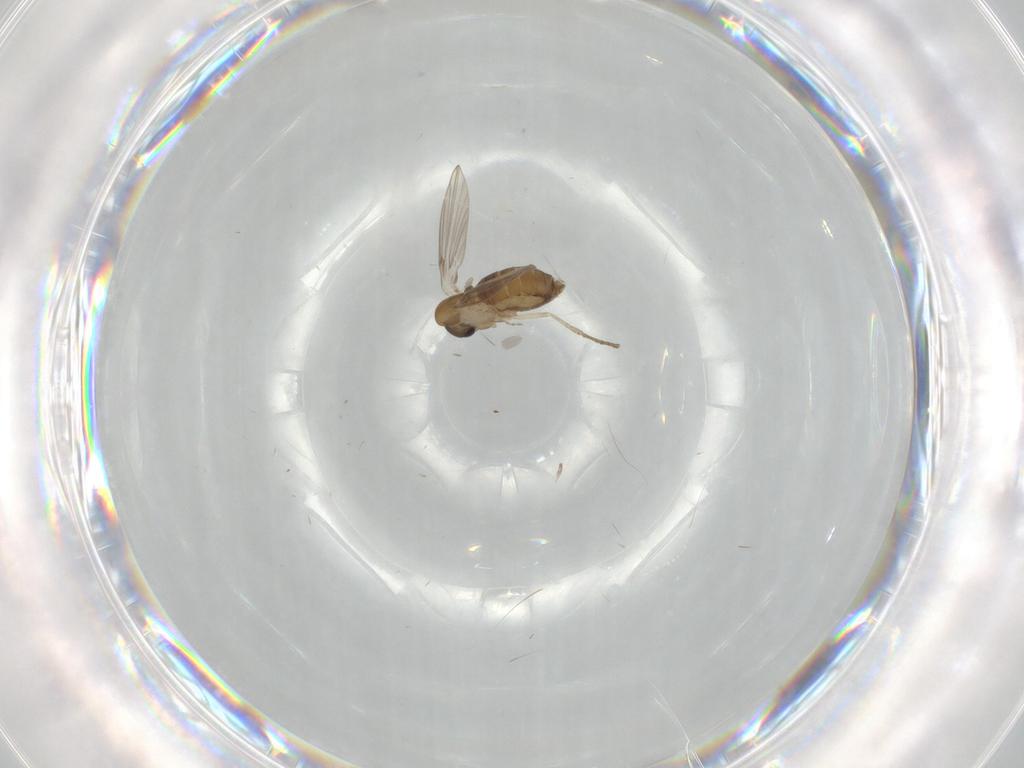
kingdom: Animalia
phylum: Arthropoda
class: Insecta
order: Diptera
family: Psychodidae
